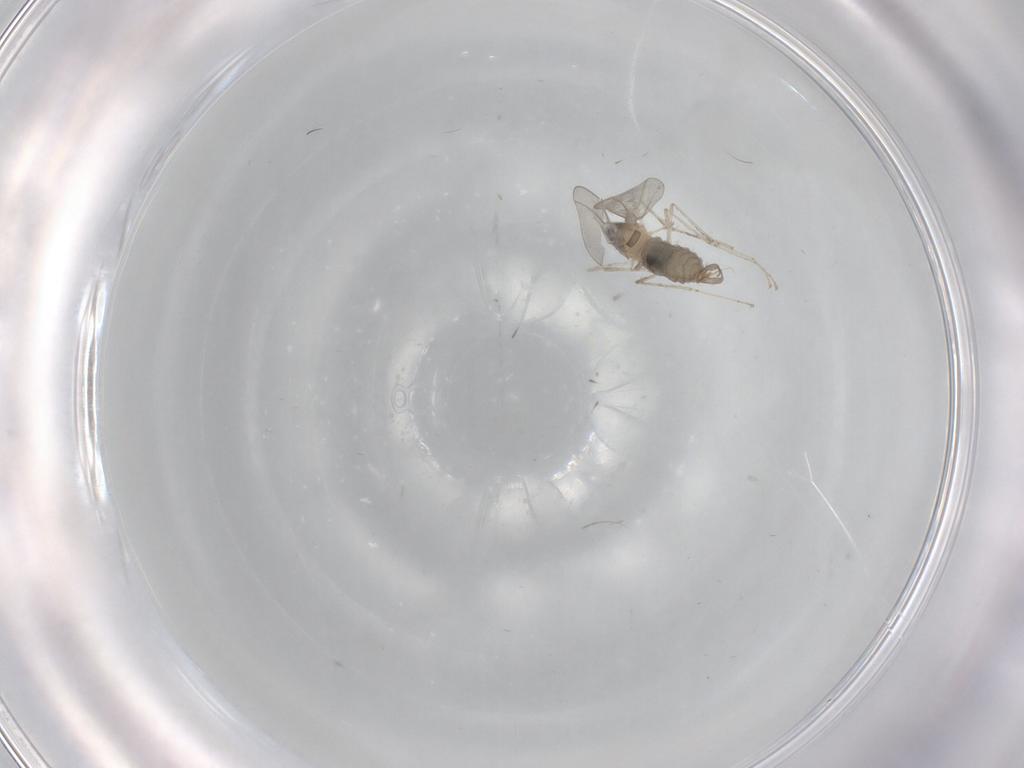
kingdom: Animalia
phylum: Arthropoda
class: Insecta
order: Diptera
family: Cecidomyiidae
